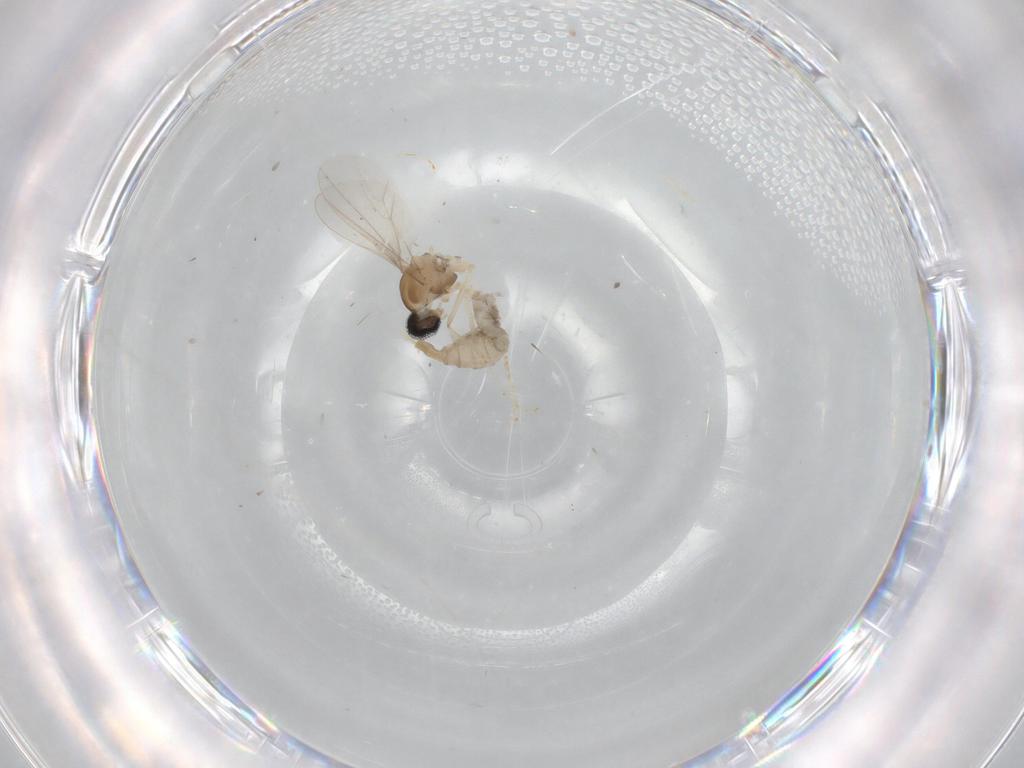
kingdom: Animalia
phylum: Arthropoda
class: Insecta
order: Diptera
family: Cecidomyiidae
